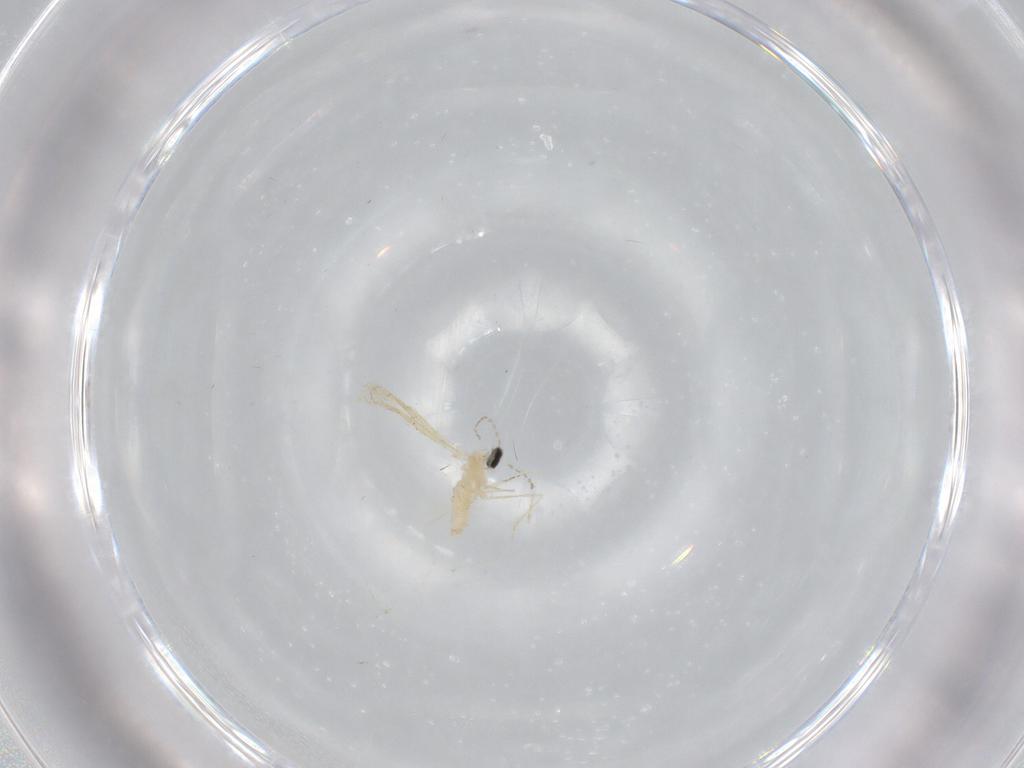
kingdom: Animalia
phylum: Arthropoda
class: Insecta
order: Diptera
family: Cecidomyiidae
